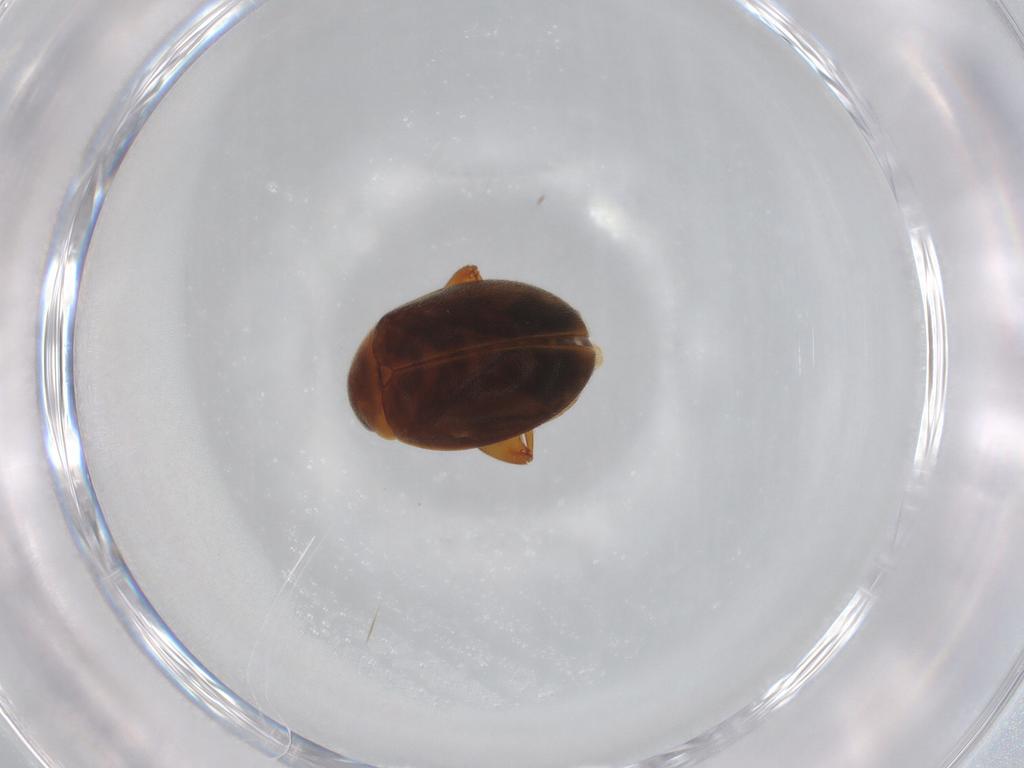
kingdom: Animalia
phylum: Arthropoda
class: Insecta
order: Coleoptera
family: Scirtidae
